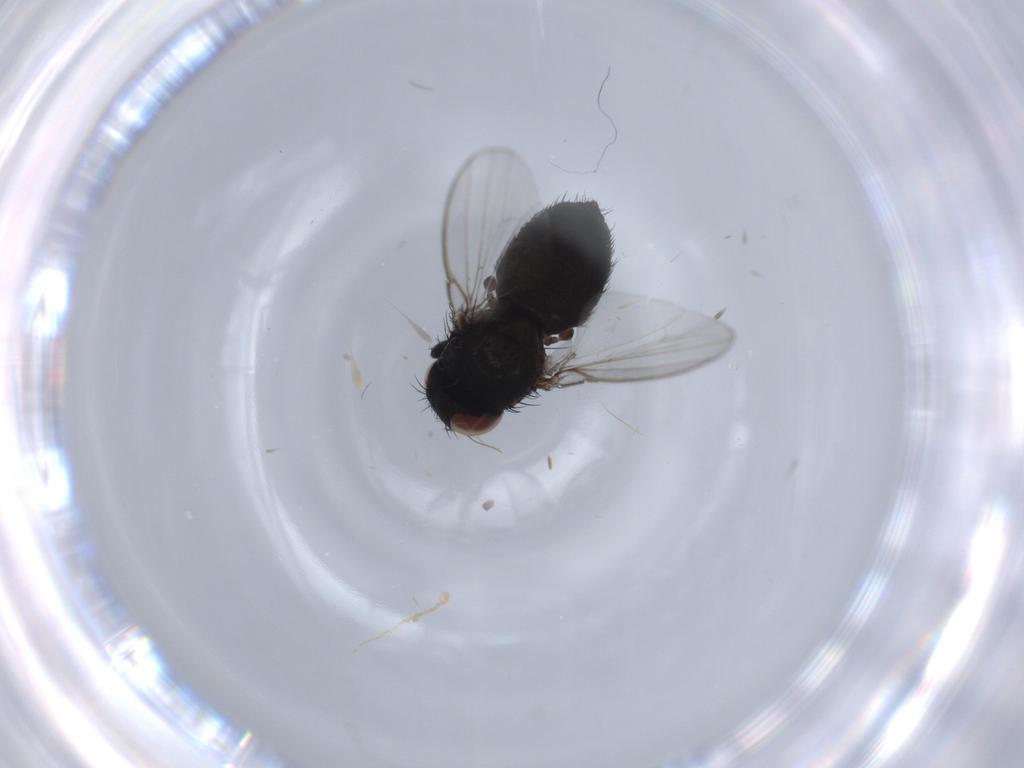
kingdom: Animalia
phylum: Arthropoda
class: Insecta
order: Diptera
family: Milichiidae
